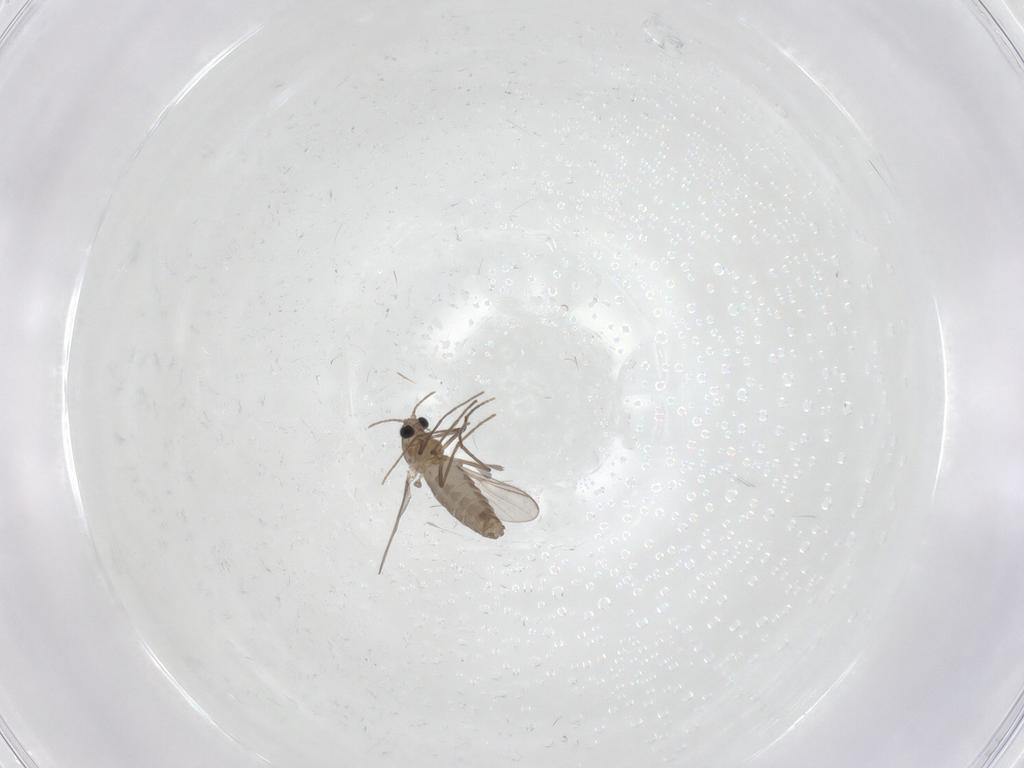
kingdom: Animalia
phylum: Arthropoda
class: Insecta
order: Diptera
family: Chironomidae
